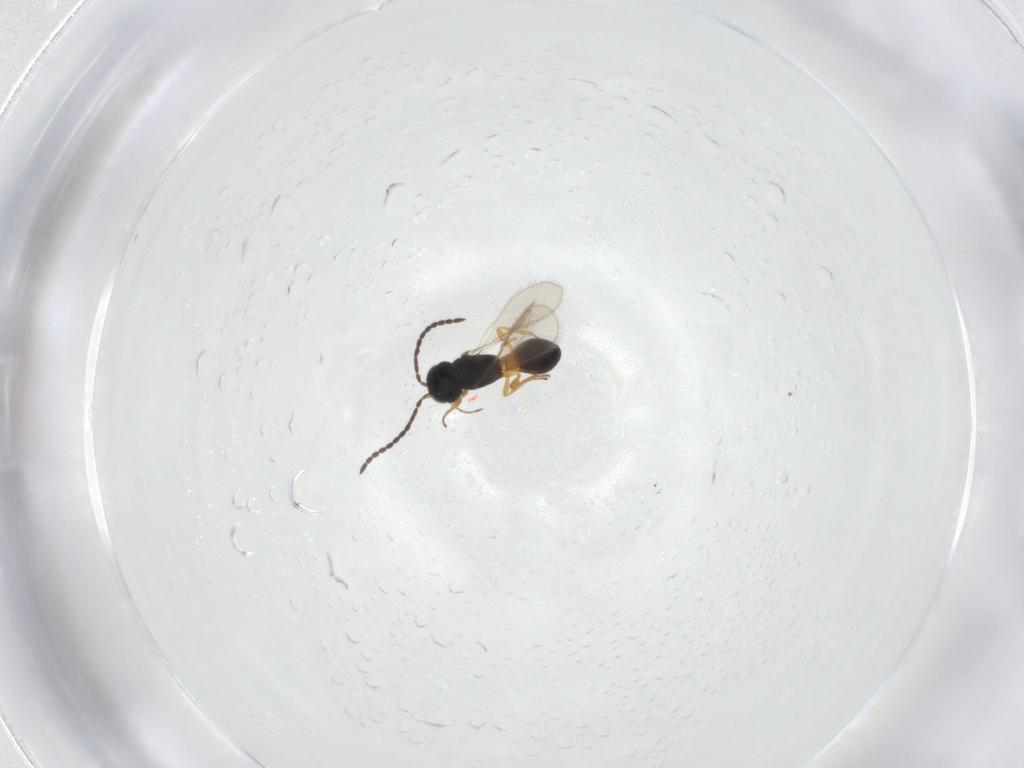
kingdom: Animalia
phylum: Arthropoda
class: Insecta
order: Hymenoptera
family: Scelionidae
